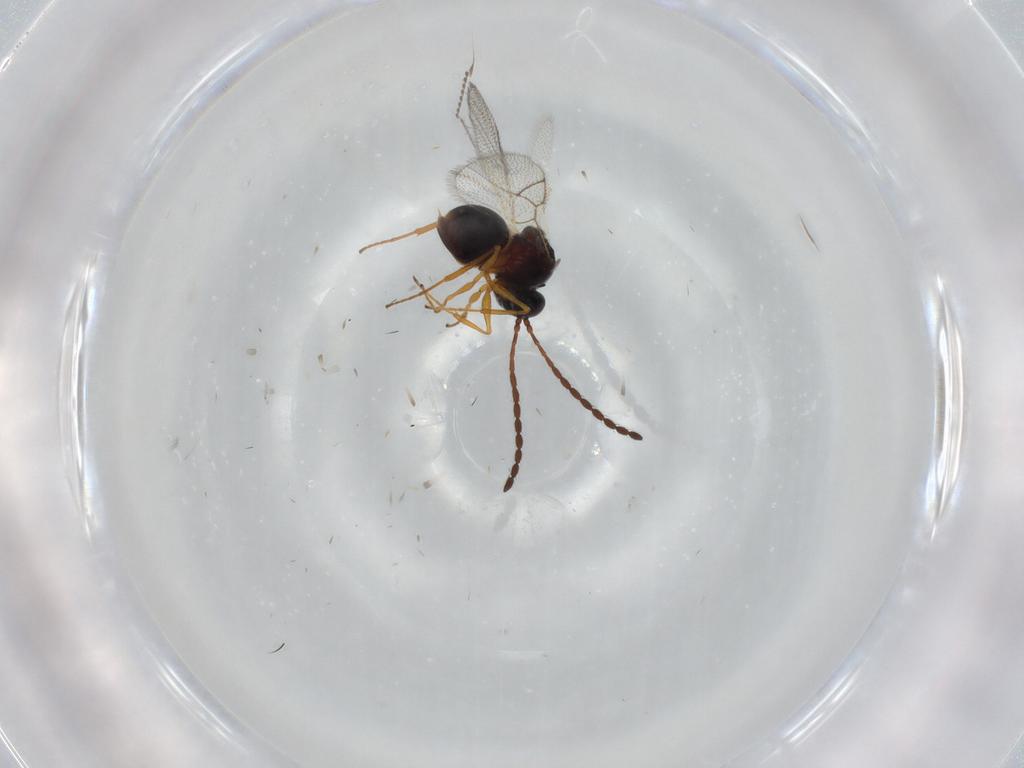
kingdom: Animalia
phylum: Arthropoda
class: Insecta
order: Hymenoptera
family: Figitidae
